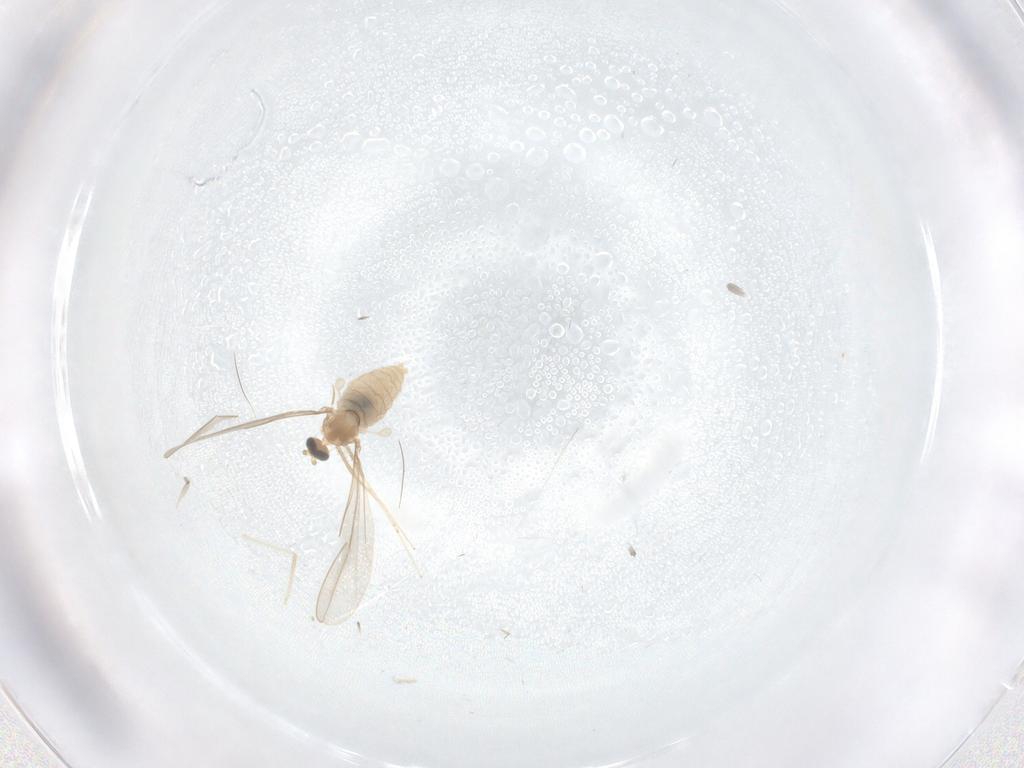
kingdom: Animalia
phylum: Arthropoda
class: Insecta
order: Diptera
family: Cecidomyiidae
